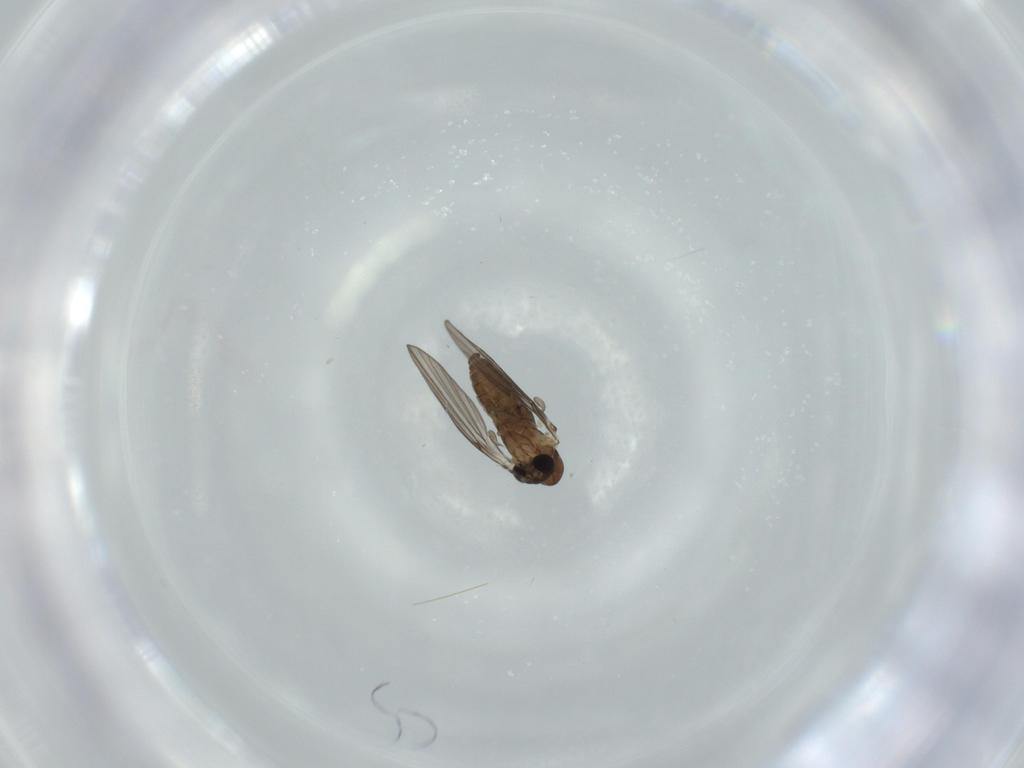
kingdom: Animalia
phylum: Arthropoda
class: Insecta
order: Diptera
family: Psychodidae
